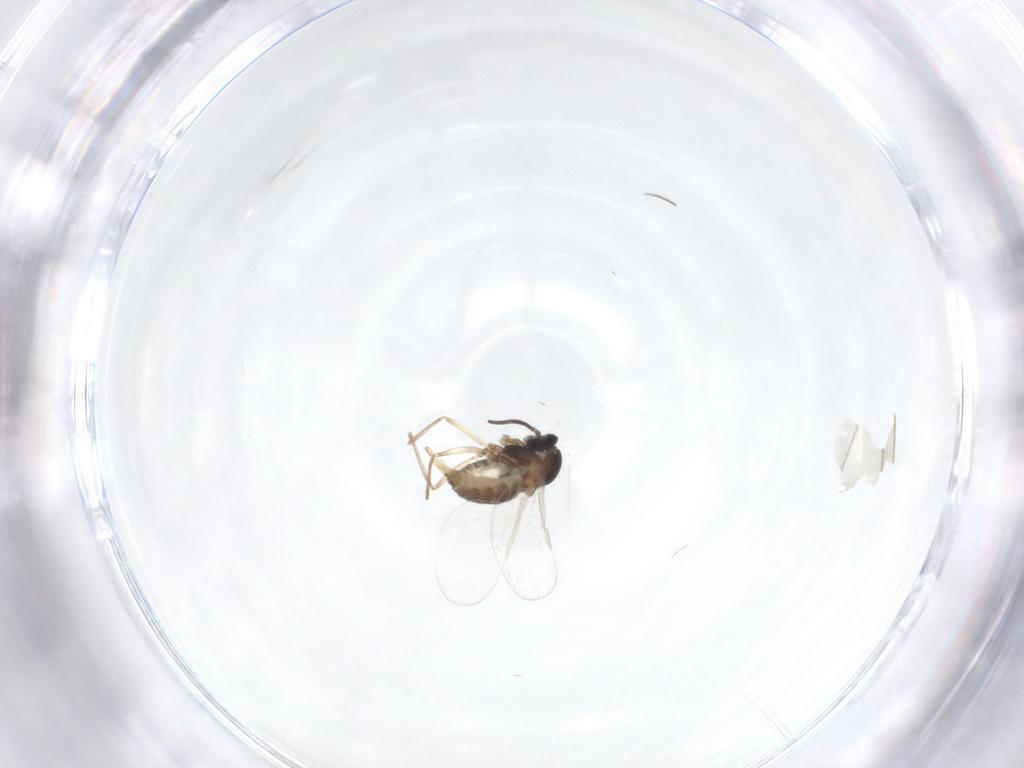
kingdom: Animalia
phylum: Arthropoda
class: Insecta
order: Diptera
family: Cecidomyiidae
